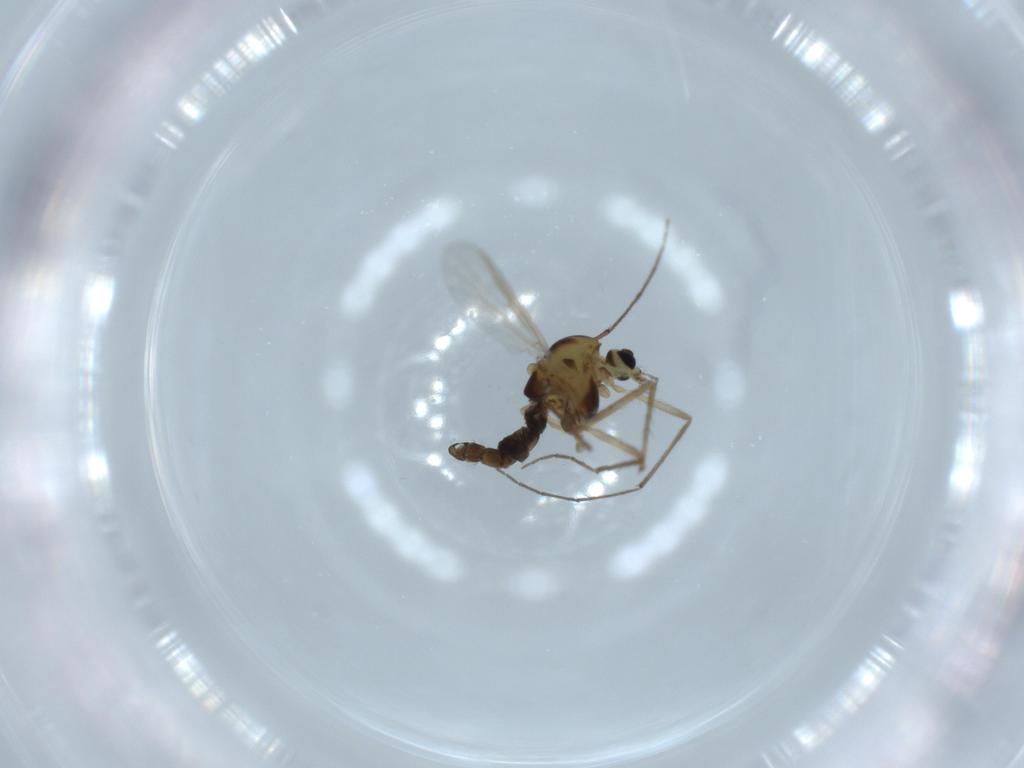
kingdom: Animalia
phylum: Arthropoda
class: Insecta
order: Diptera
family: Chironomidae
